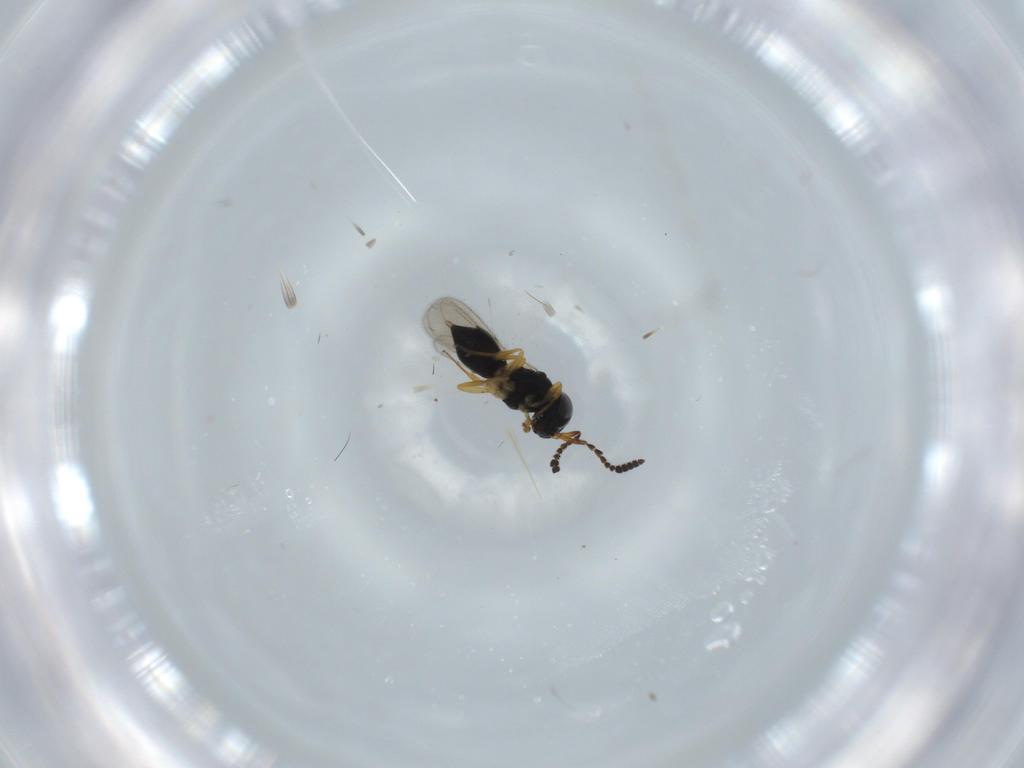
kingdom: Animalia
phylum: Arthropoda
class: Insecta
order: Hymenoptera
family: Scelionidae
